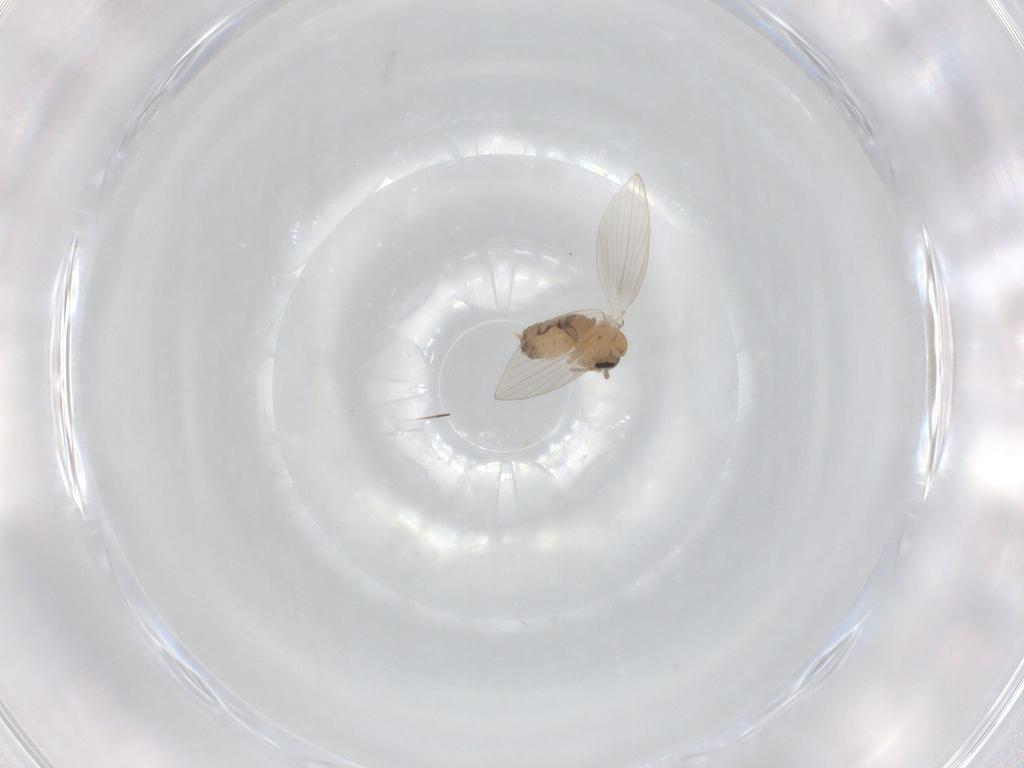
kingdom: Animalia
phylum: Arthropoda
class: Insecta
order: Diptera
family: Psychodidae
